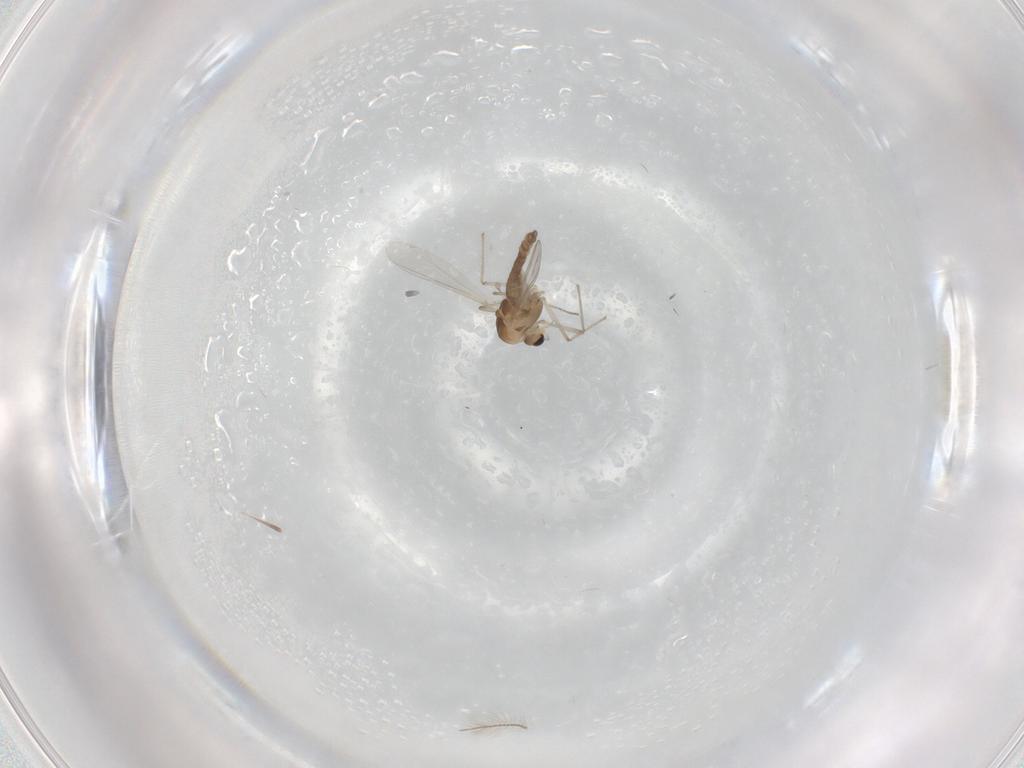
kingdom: Animalia
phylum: Arthropoda
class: Insecta
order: Diptera
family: Chironomidae
